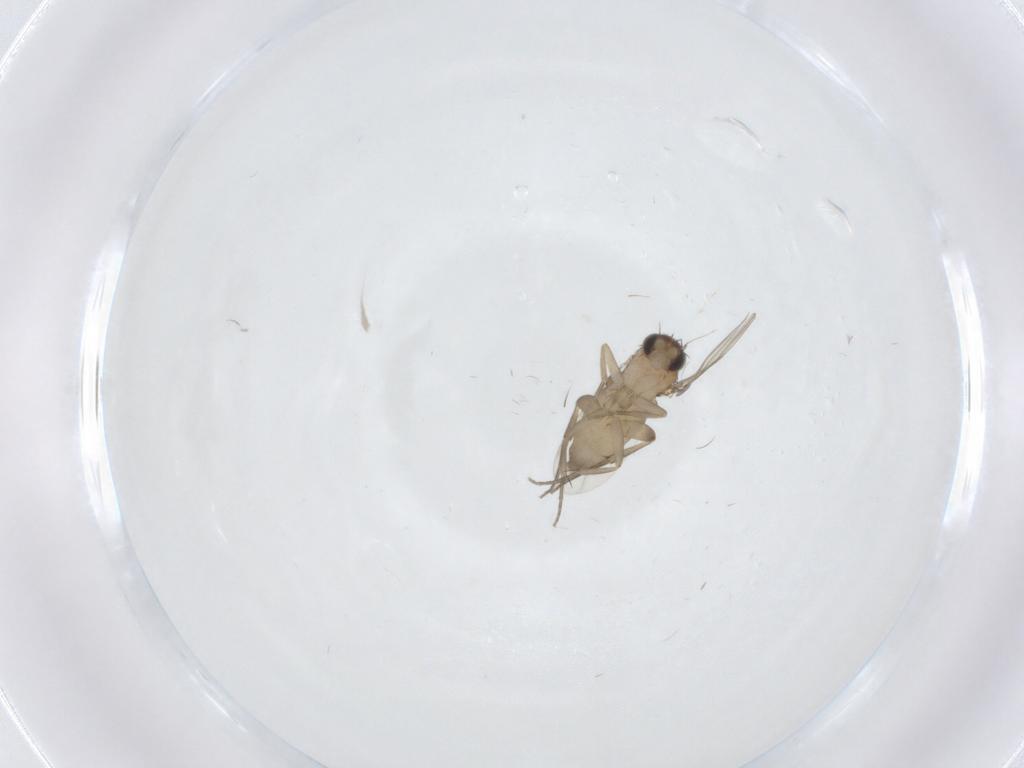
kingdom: Animalia
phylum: Arthropoda
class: Insecta
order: Diptera
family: Phoridae
